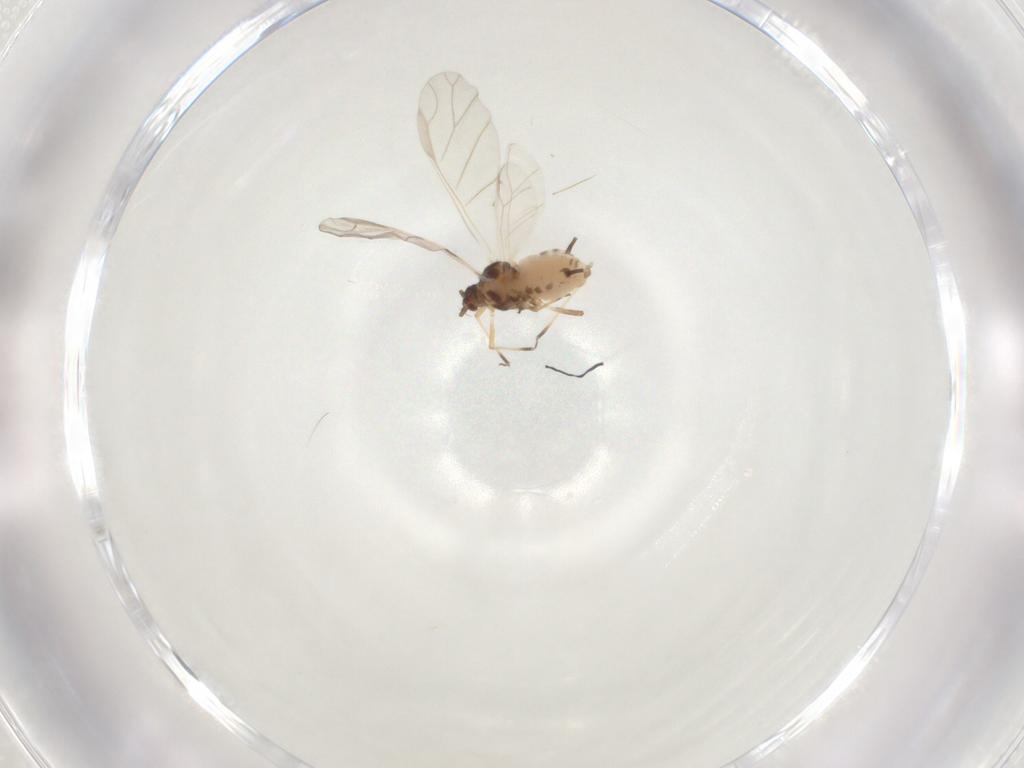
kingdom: Animalia
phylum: Arthropoda
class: Insecta
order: Hemiptera
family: Aphididae
